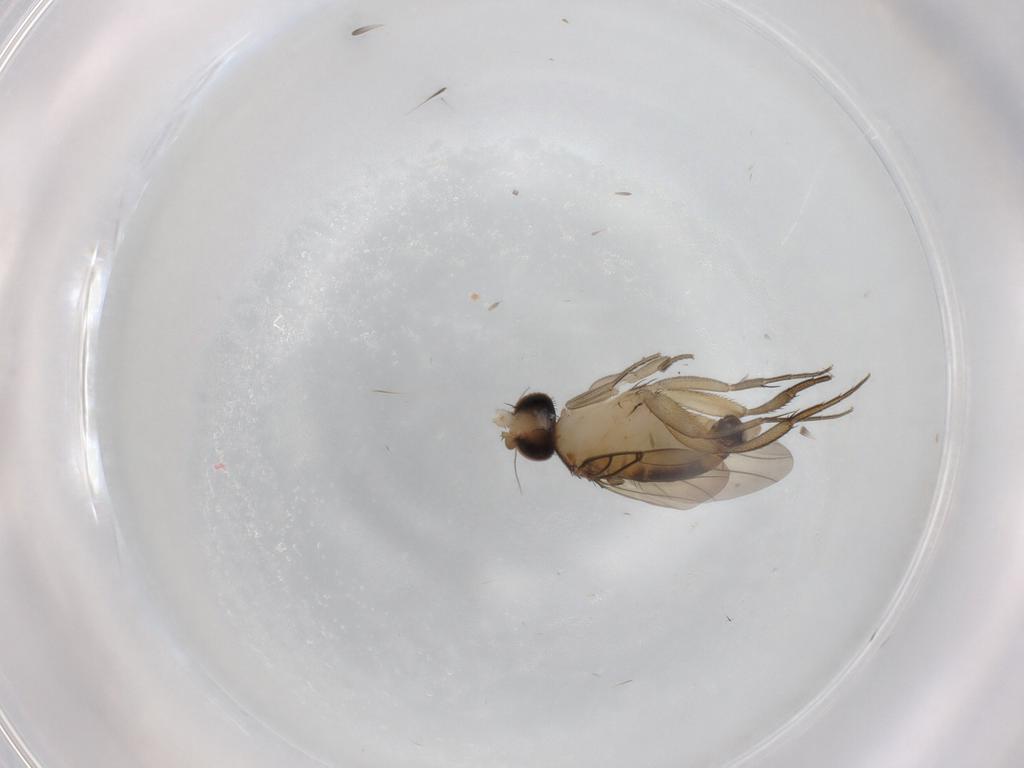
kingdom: Animalia
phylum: Arthropoda
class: Insecta
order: Diptera
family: Phoridae
